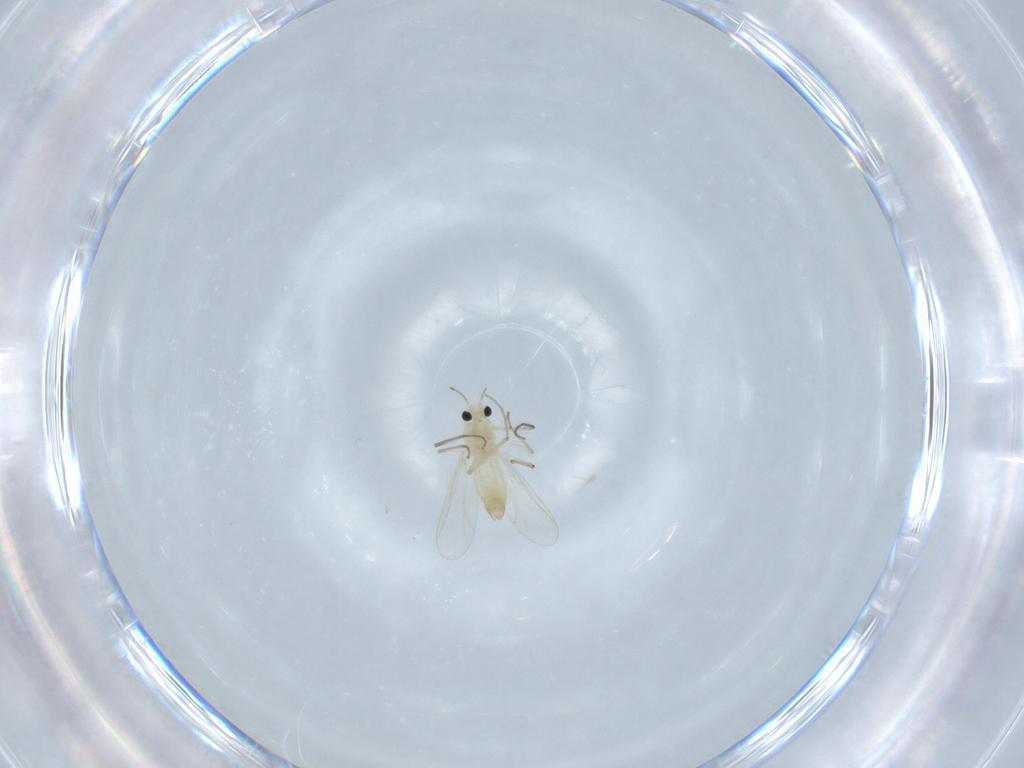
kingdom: Animalia
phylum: Arthropoda
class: Insecta
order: Diptera
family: Chironomidae
